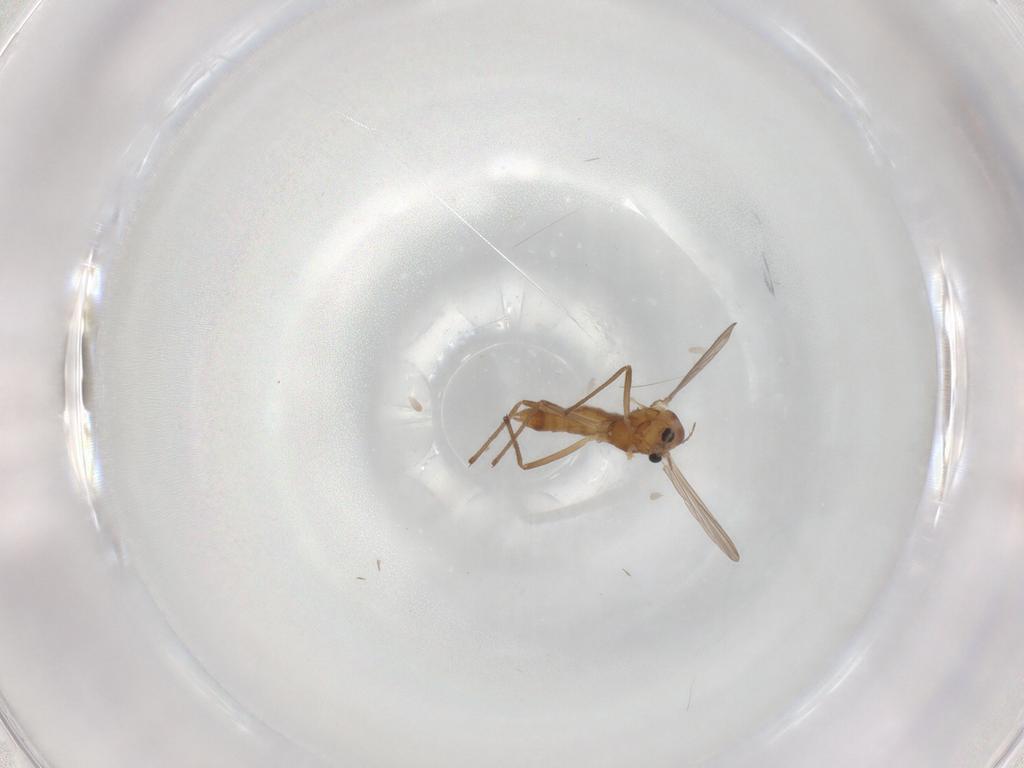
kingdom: Animalia
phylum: Arthropoda
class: Insecta
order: Diptera
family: Chironomidae
